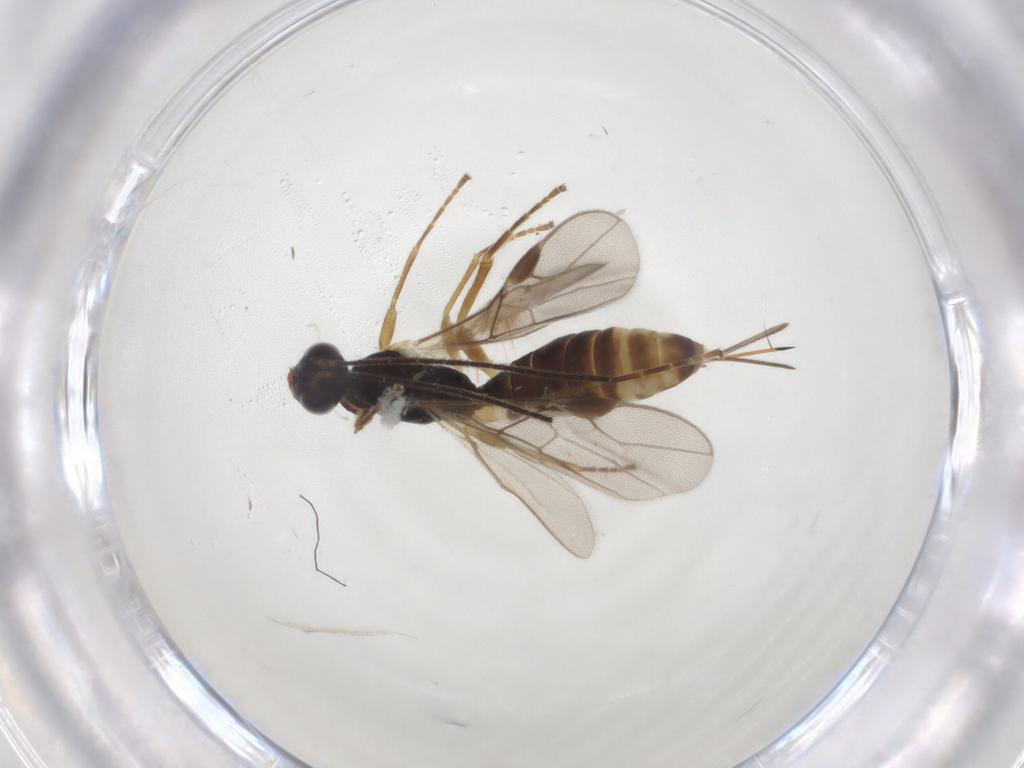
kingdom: Animalia
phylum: Arthropoda
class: Insecta
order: Hymenoptera
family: Braconidae
